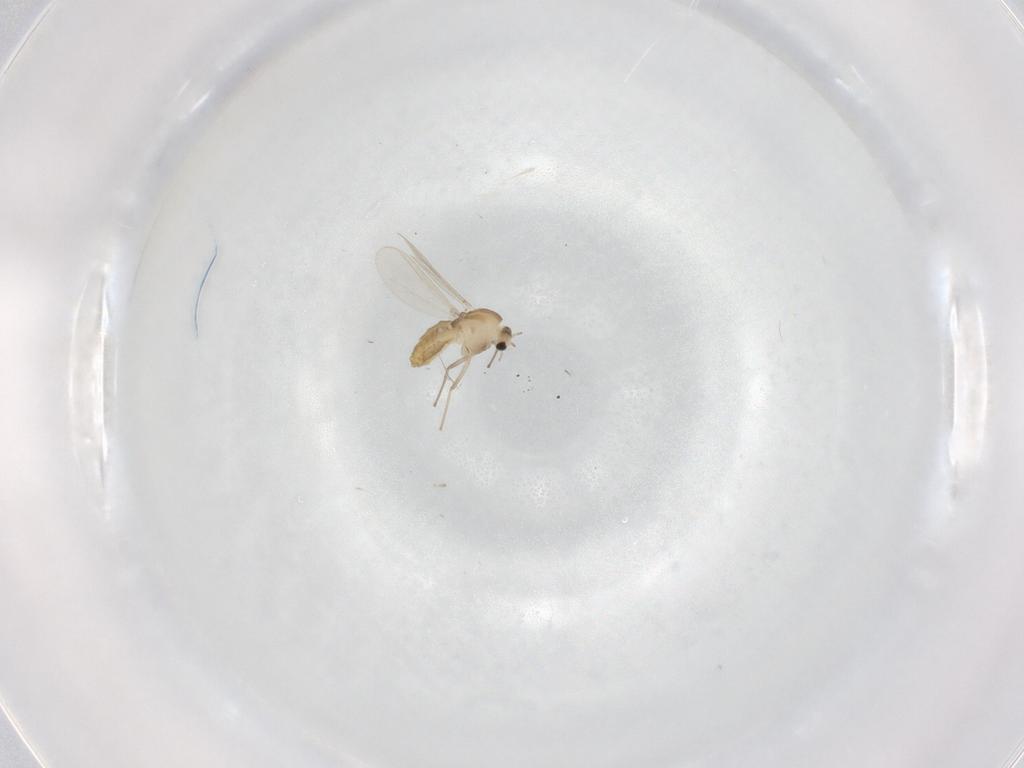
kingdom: Animalia
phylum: Arthropoda
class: Insecta
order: Diptera
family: Chironomidae
